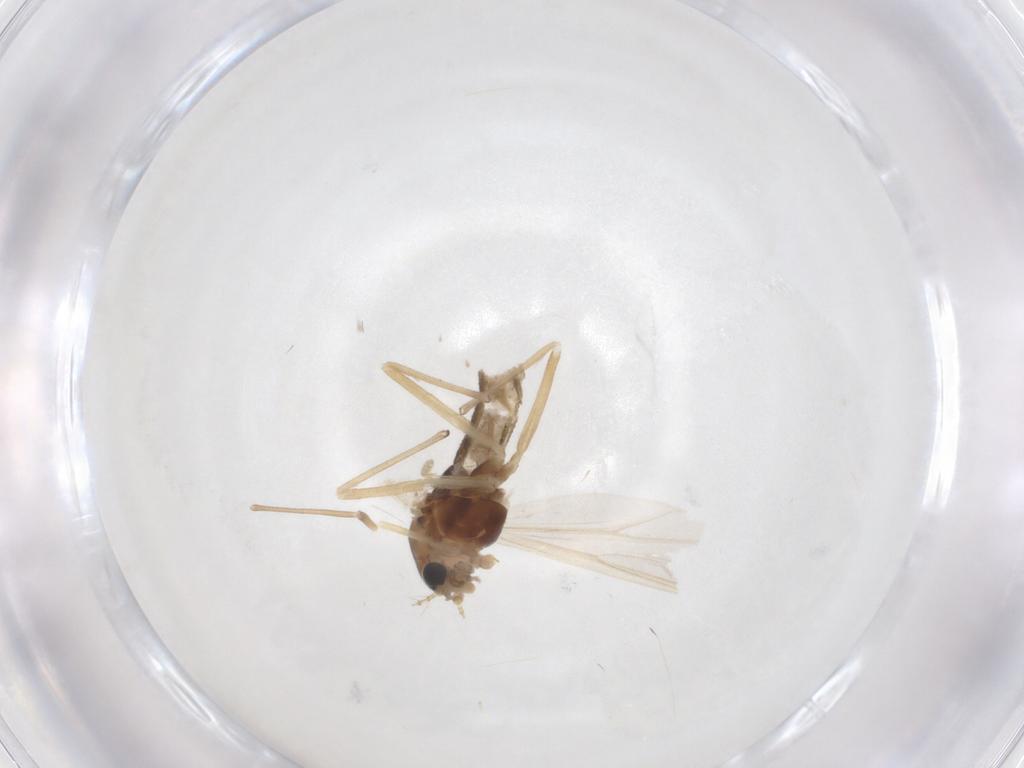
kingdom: Animalia
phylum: Arthropoda
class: Insecta
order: Diptera
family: Chironomidae
